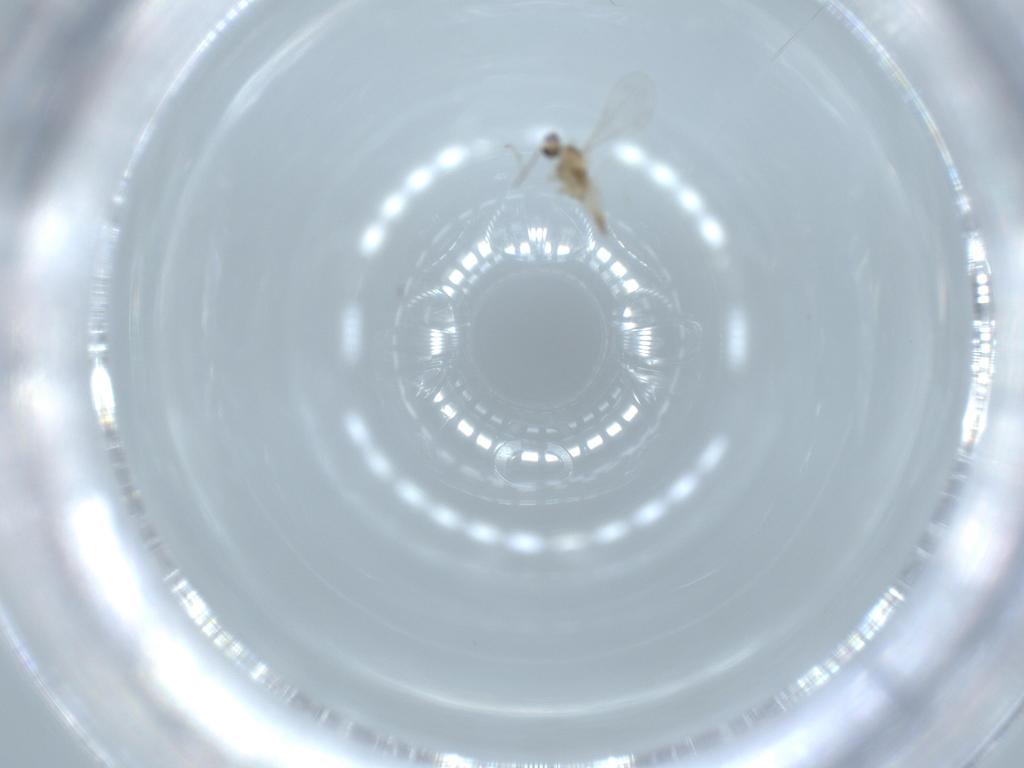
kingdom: Animalia
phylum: Arthropoda
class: Insecta
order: Diptera
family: Cecidomyiidae
